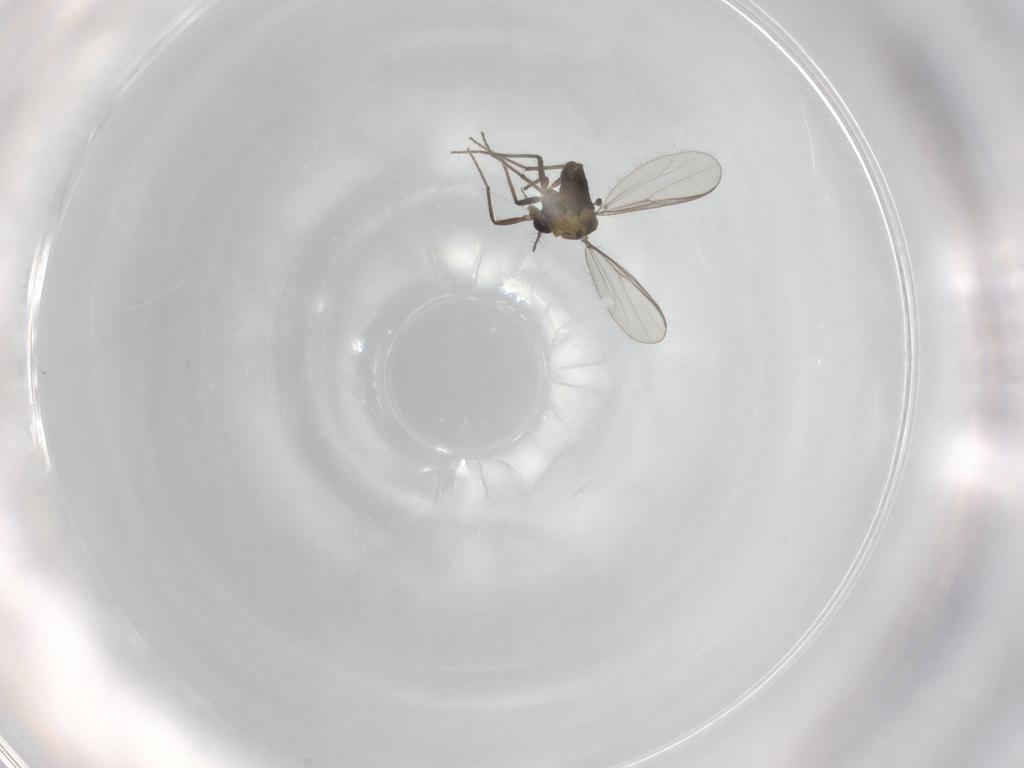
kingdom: Animalia
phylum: Arthropoda
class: Insecta
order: Diptera
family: Chironomidae
